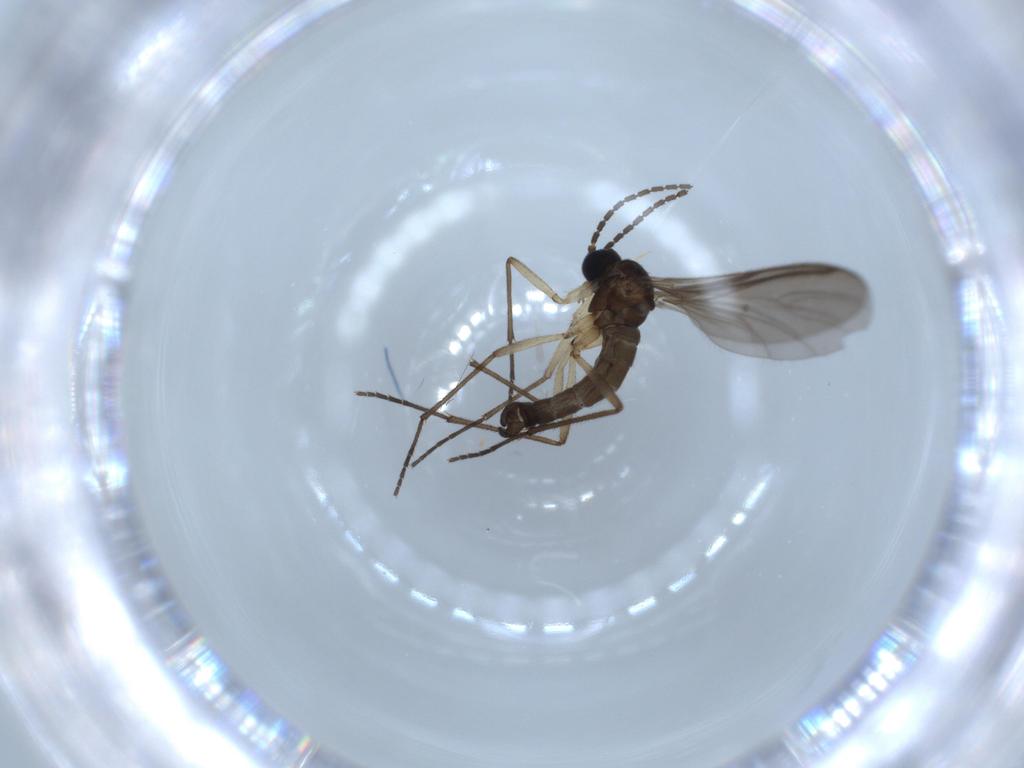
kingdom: Animalia
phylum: Arthropoda
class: Insecta
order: Diptera
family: Sciaridae
